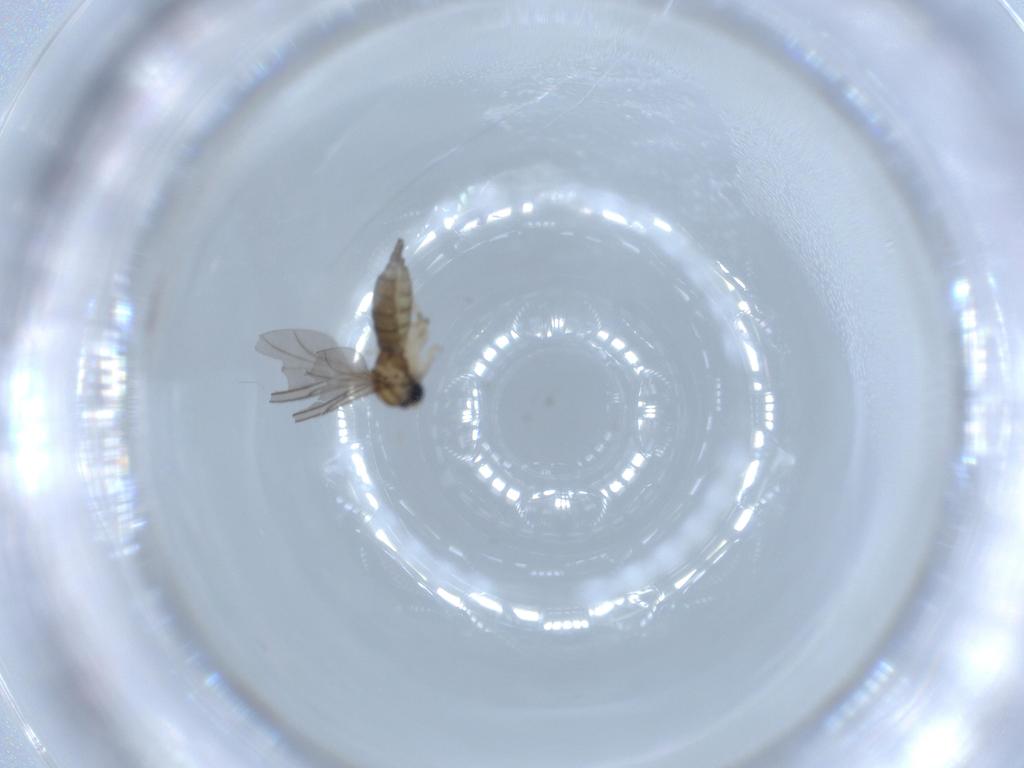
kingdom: Animalia
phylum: Arthropoda
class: Insecta
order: Diptera
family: Sciaridae
